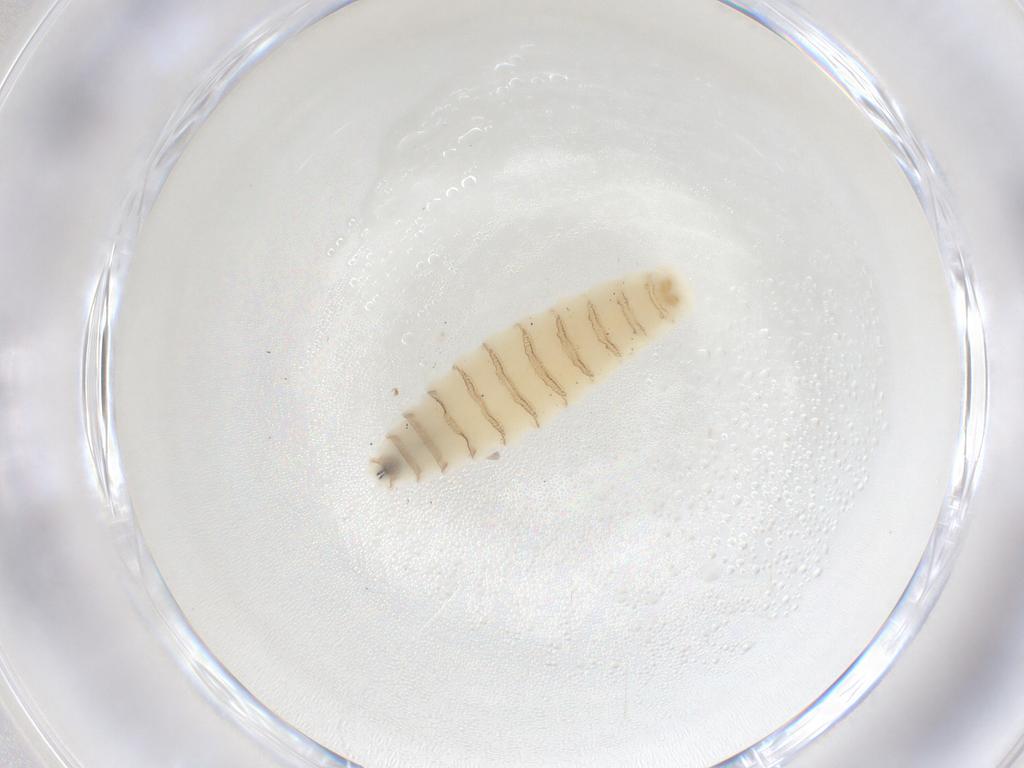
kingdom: Animalia
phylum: Arthropoda
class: Insecta
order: Diptera
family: Sarcophagidae
